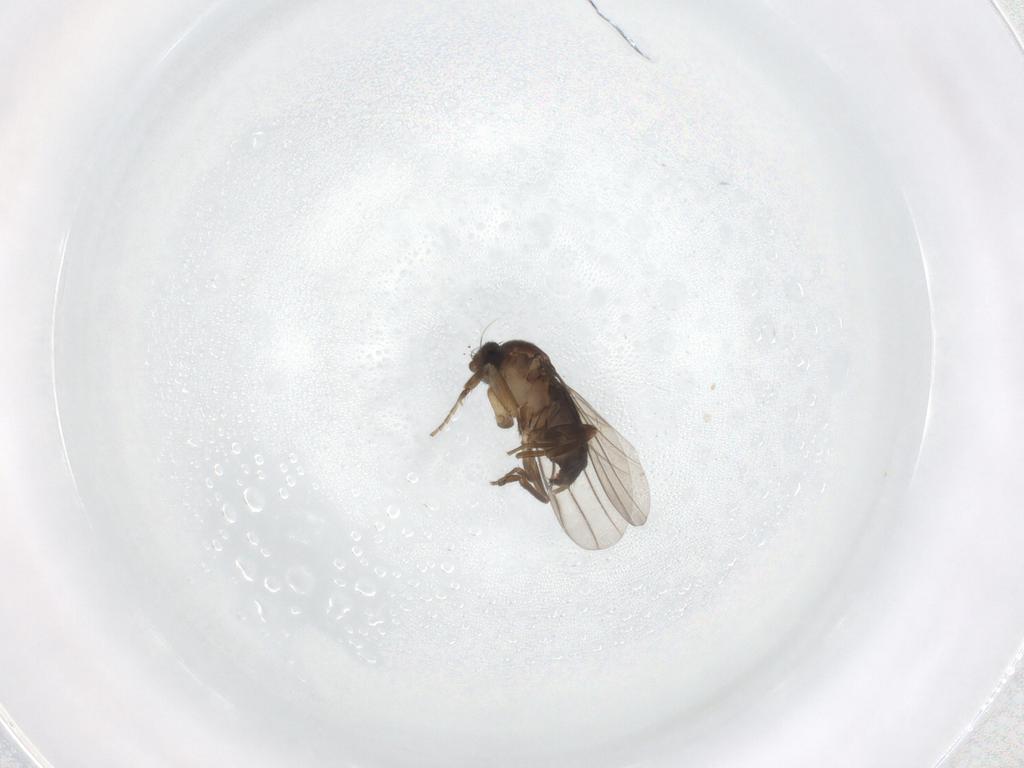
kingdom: Animalia
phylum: Arthropoda
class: Insecta
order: Diptera
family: Phoridae
